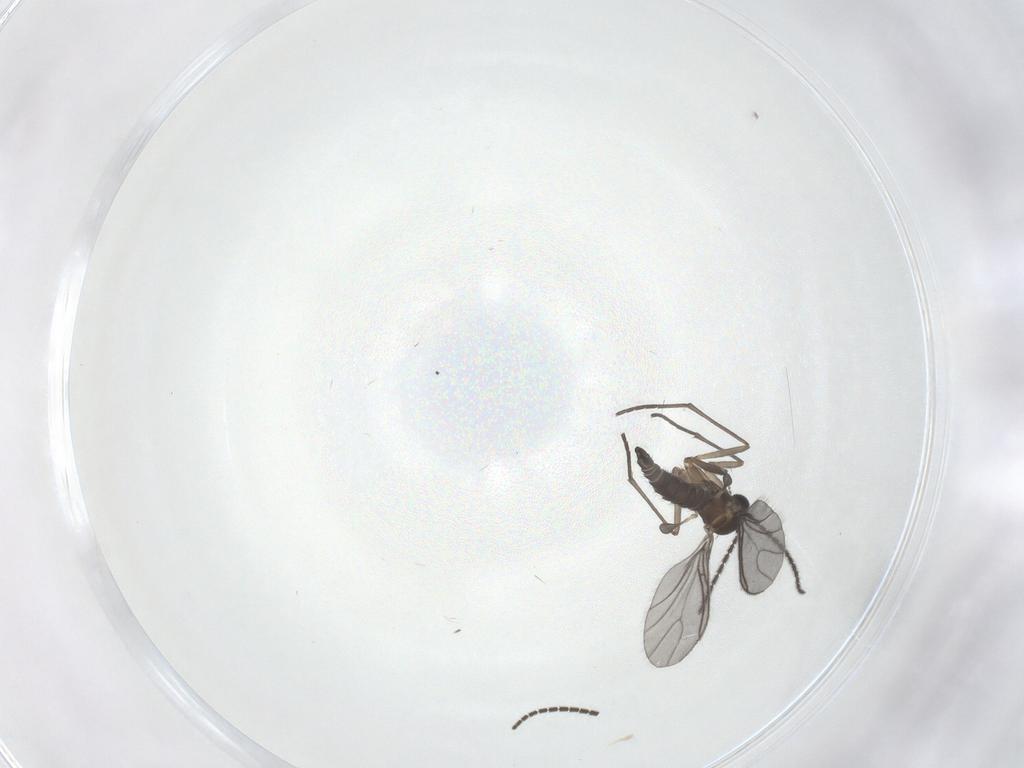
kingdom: Animalia
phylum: Arthropoda
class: Insecta
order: Diptera
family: Sciaridae
